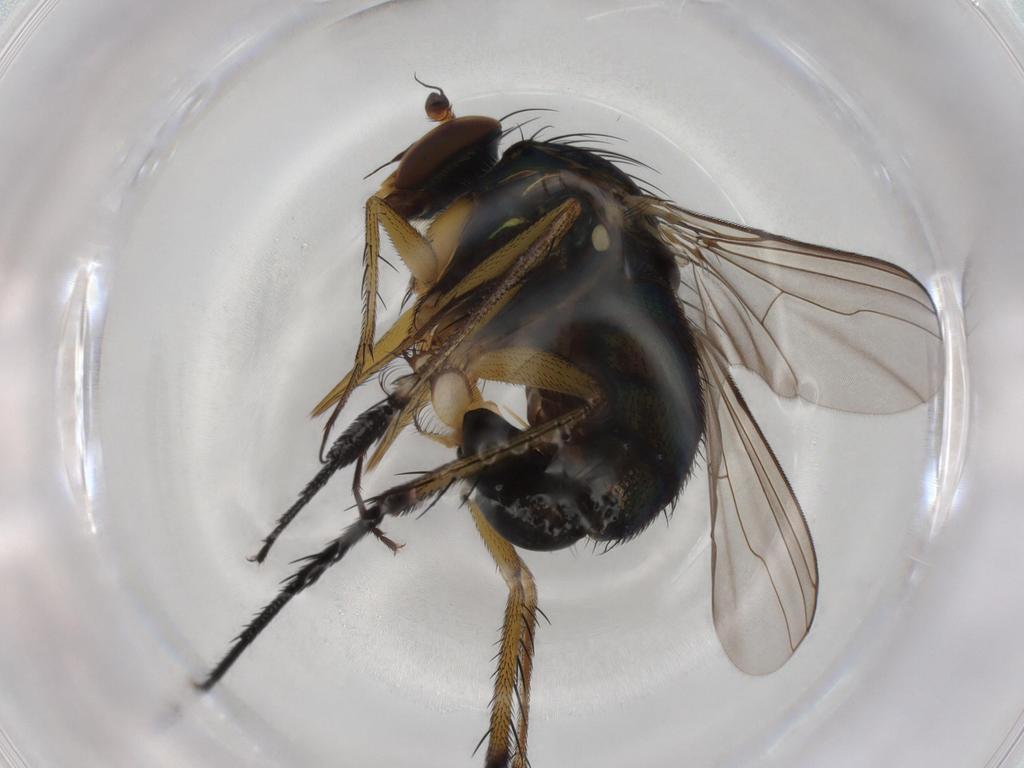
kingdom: Animalia
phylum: Arthropoda
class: Insecta
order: Diptera
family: Dolichopodidae
